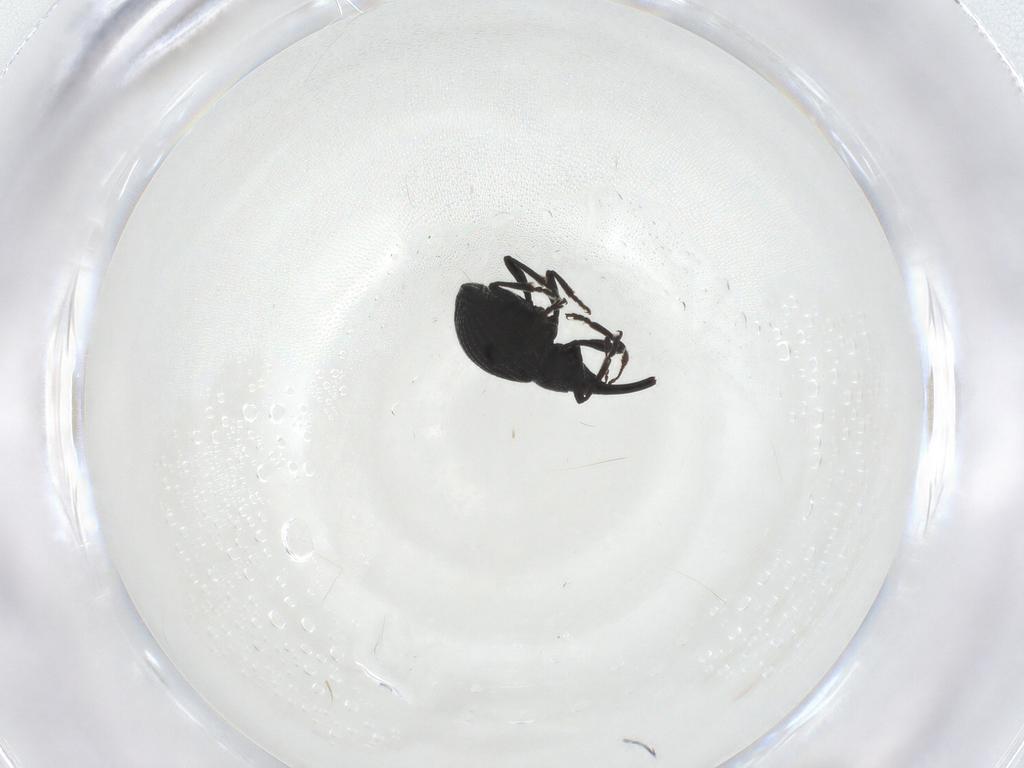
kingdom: Animalia
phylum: Arthropoda
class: Insecta
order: Coleoptera
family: Brentidae
